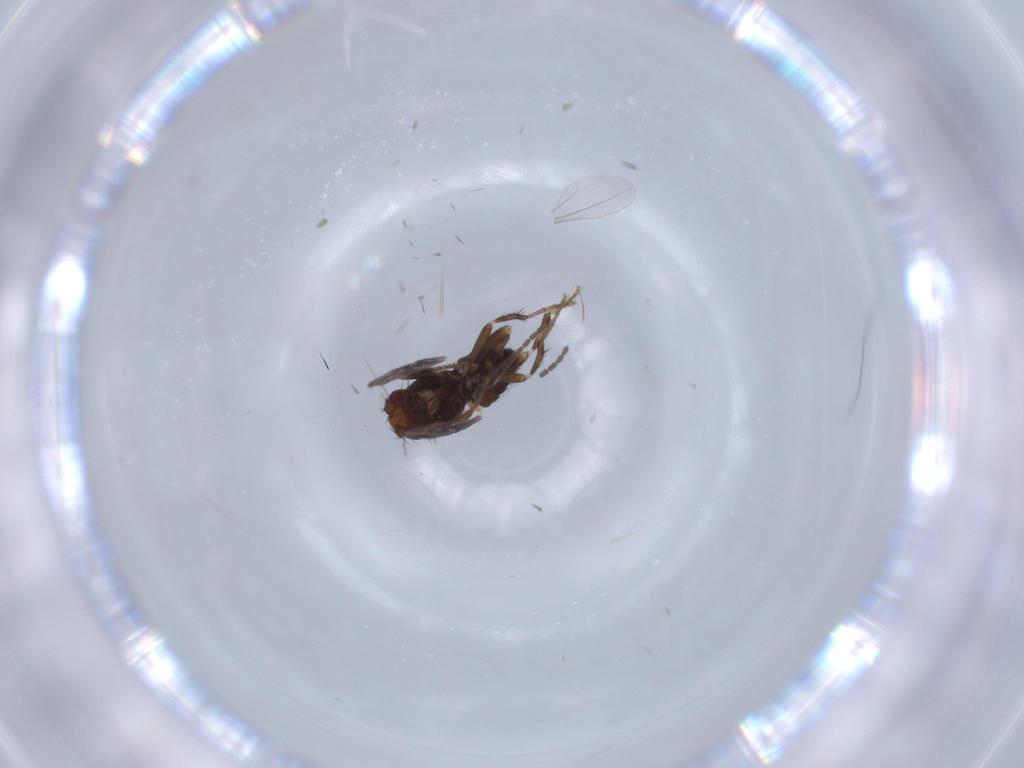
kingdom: Animalia
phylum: Arthropoda
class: Insecta
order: Diptera
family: Sphaeroceridae
